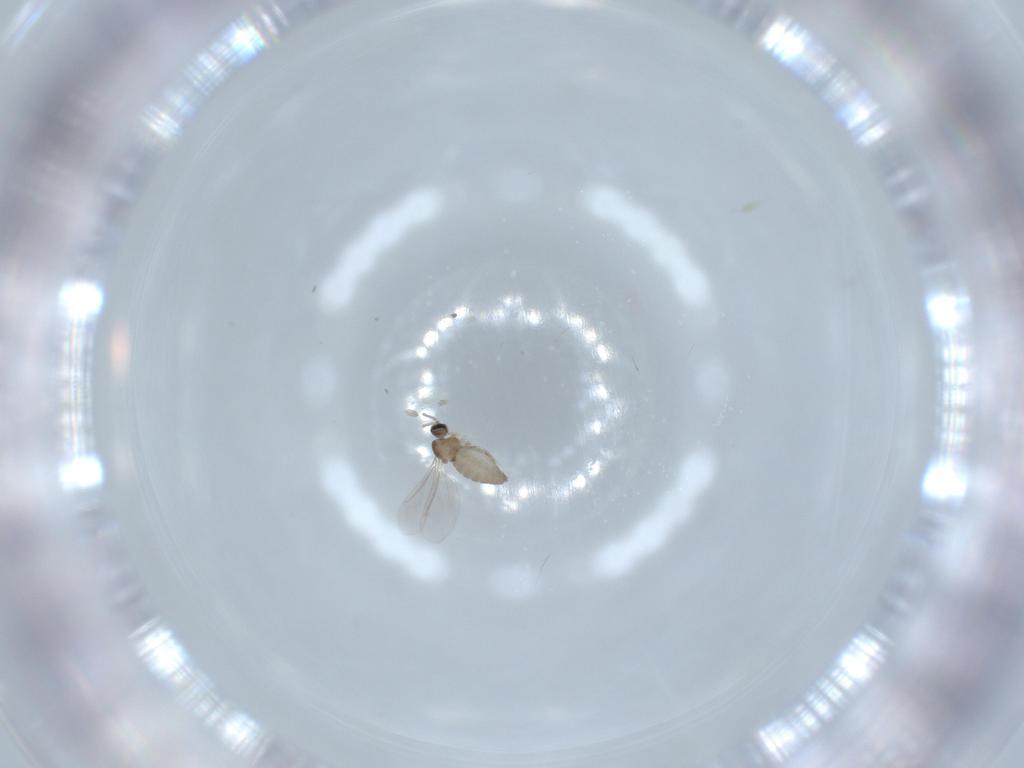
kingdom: Animalia
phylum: Arthropoda
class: Insecta
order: Diptera
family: Cecidomyiidae
